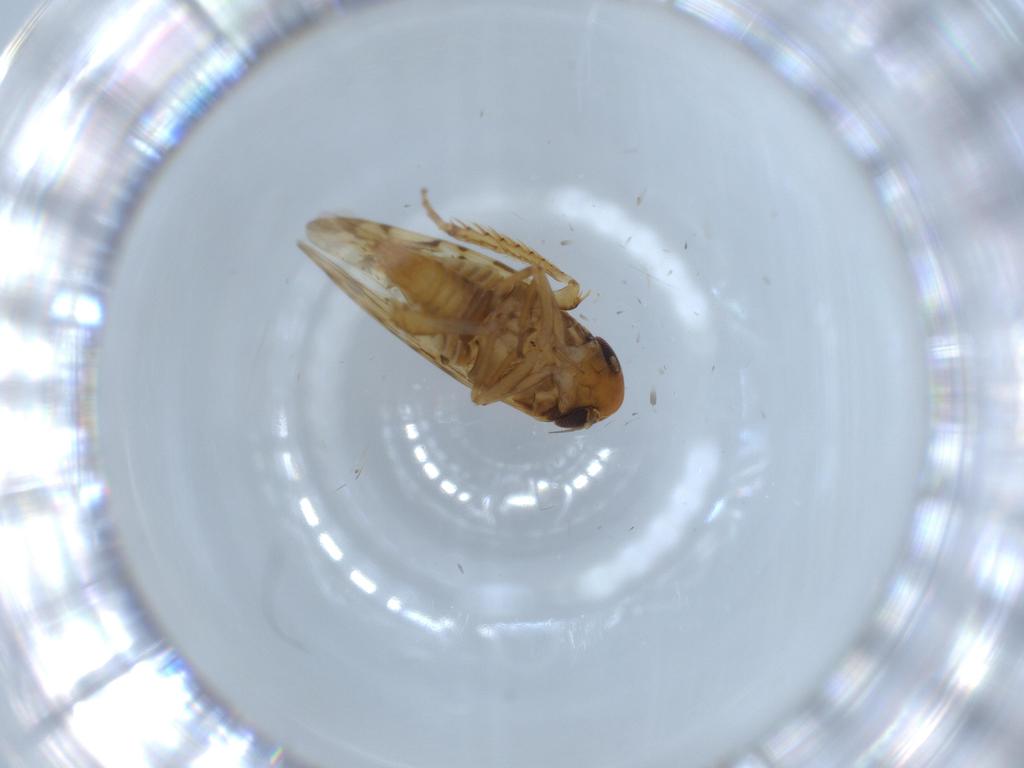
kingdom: Animalia
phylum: Arthropoda
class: Insecta
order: Hemiptera
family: Cicadellidae
